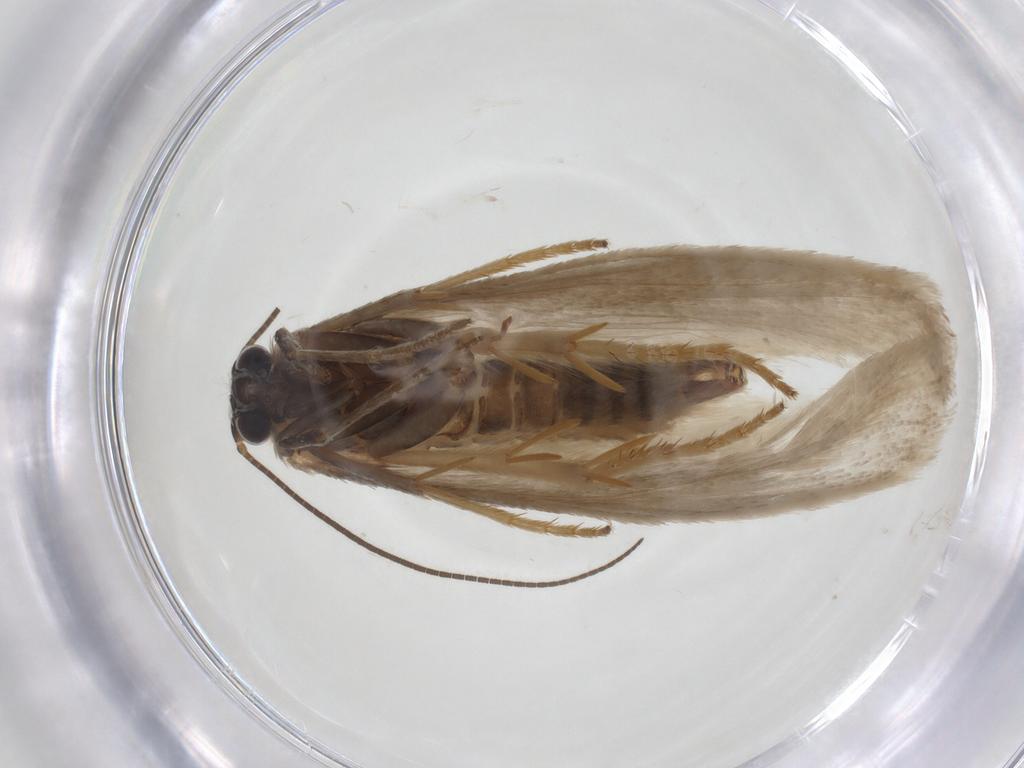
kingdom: Animalia
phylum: Arthropoda
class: Insecta
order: Lepidoptera
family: Tridentaformidae
